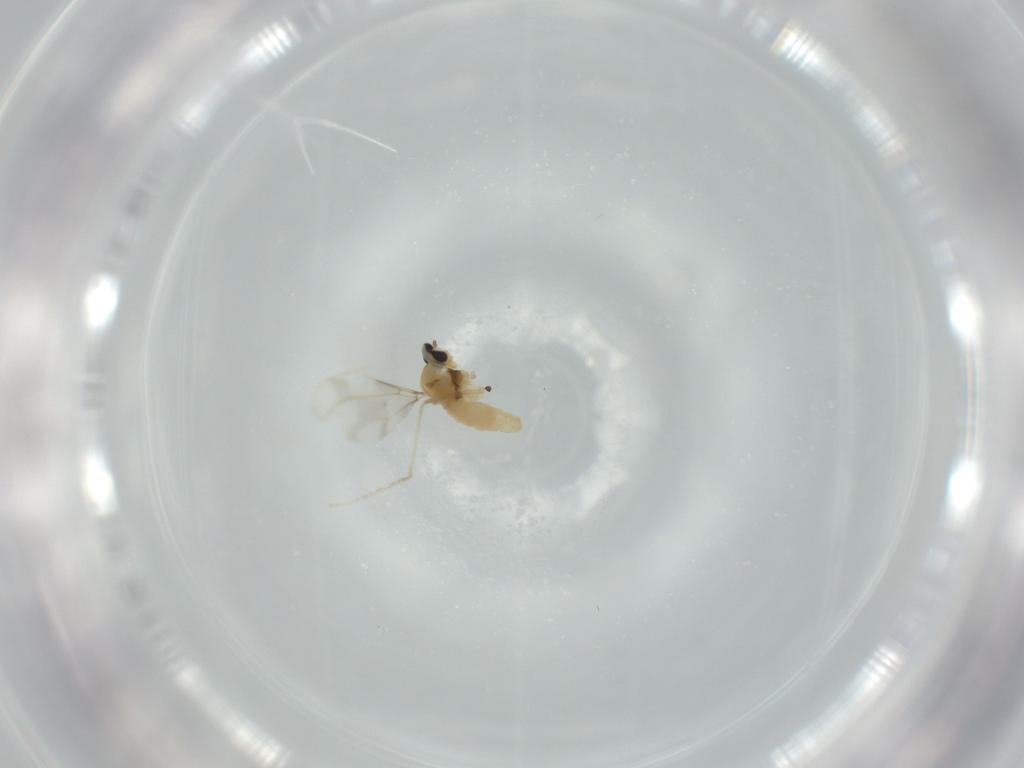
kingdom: Animalia
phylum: Arthropoda
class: Insecta
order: Diptera
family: Cecidomyiidae
